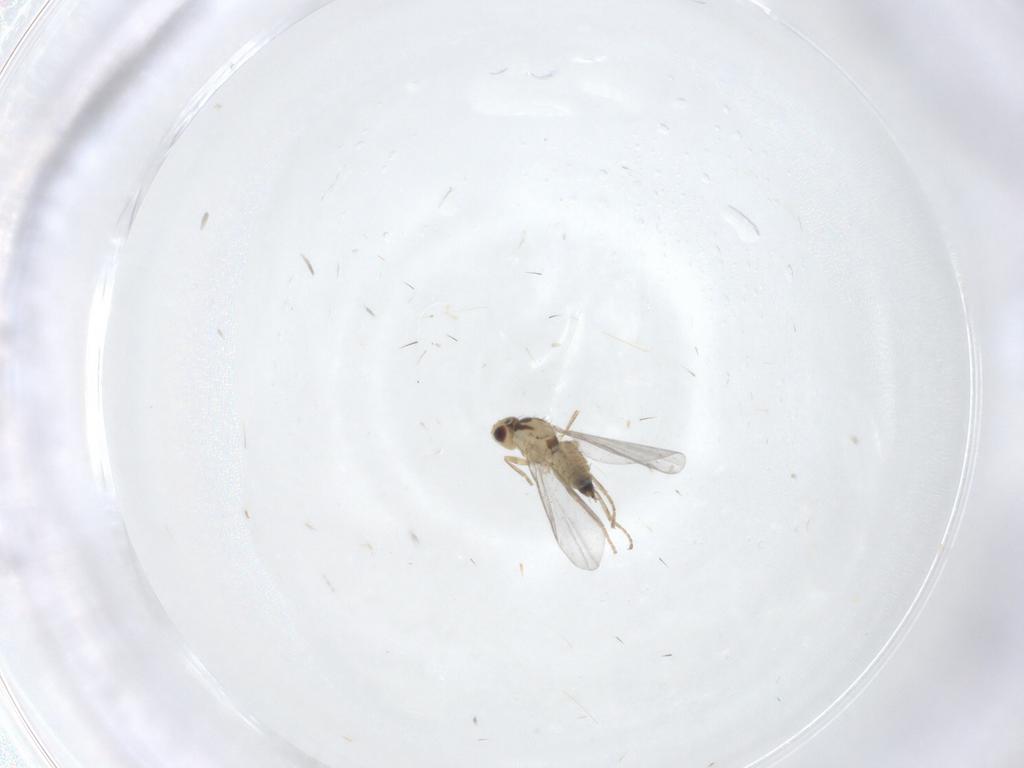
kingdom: Animalia
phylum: Arthropoda
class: Insecta
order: Diptera
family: Agromyzidae
